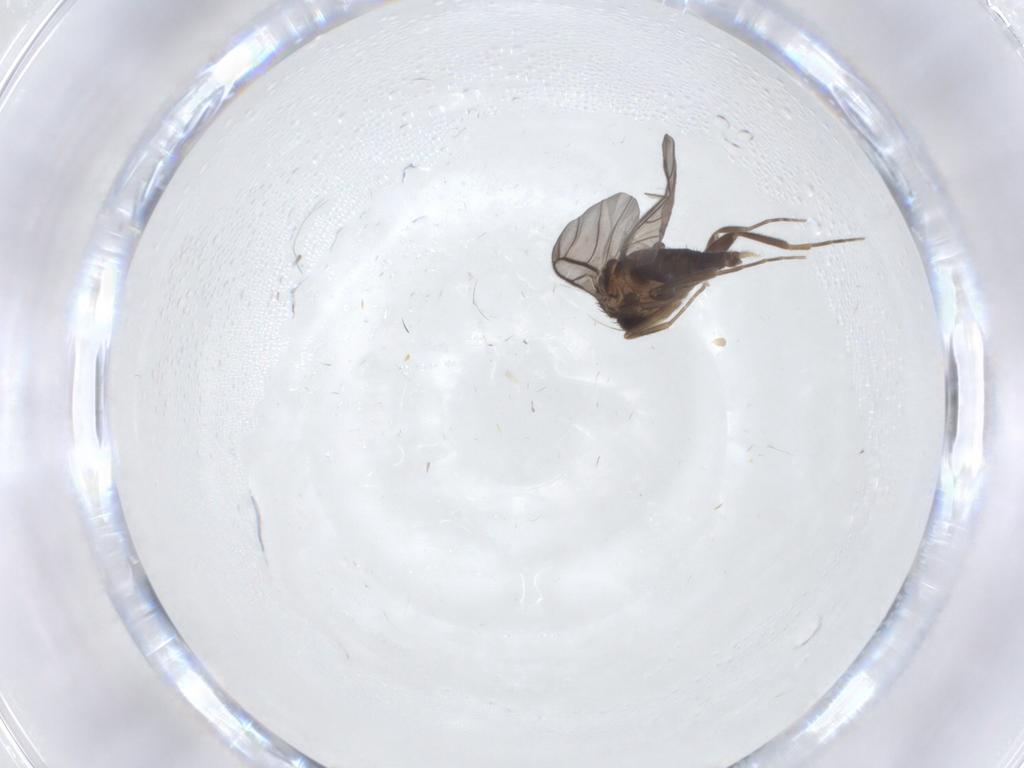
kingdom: Animalia
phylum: Arthropoda
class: Insecta
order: Diptera
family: Cecidomyiidae
